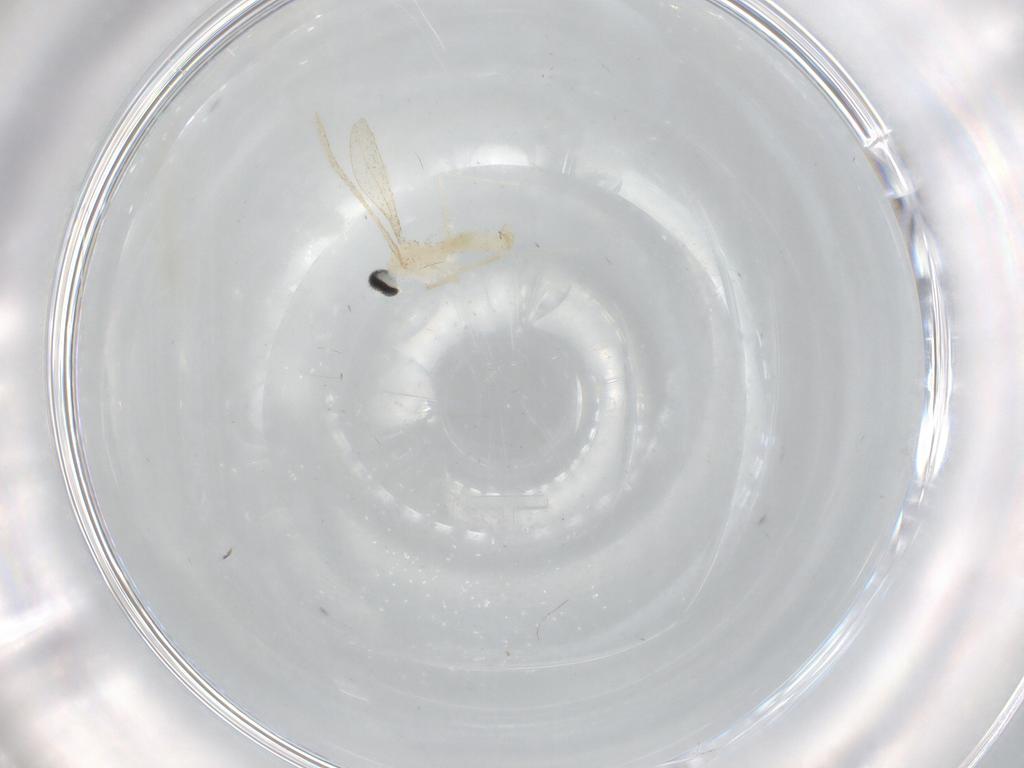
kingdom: Animalia
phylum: Arthropoda
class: Insecta
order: Diptera
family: Cecidomyiidae
